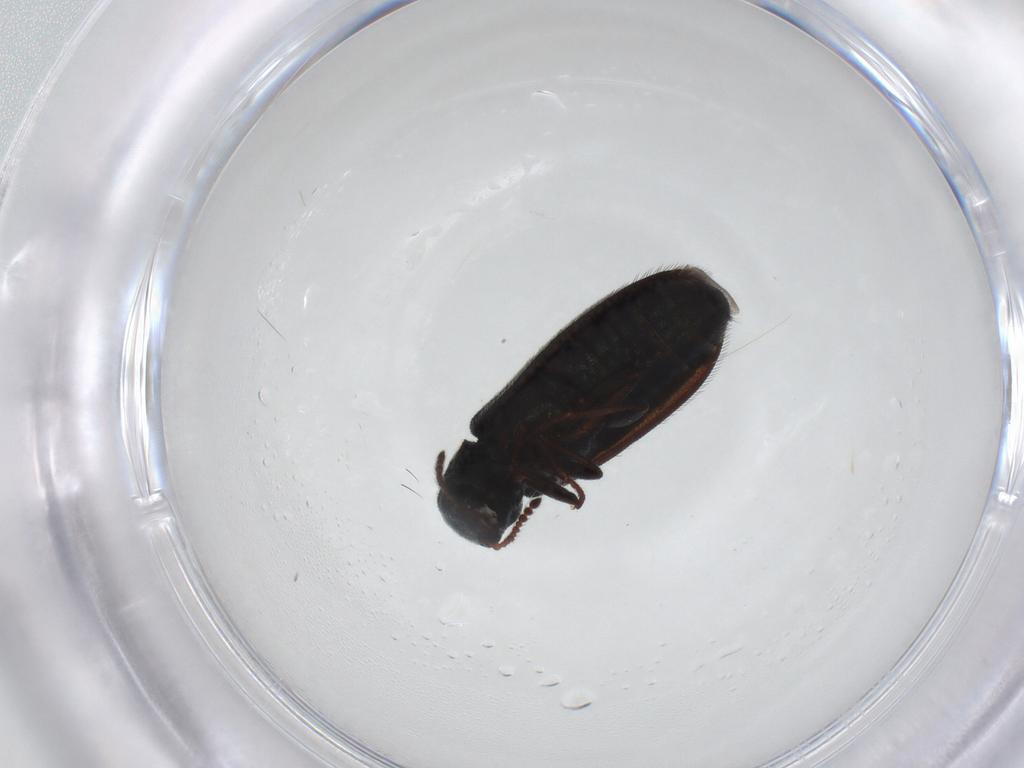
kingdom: Animalia
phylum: Arthropoda
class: Insecta
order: Coleoptera
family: Melyridae
